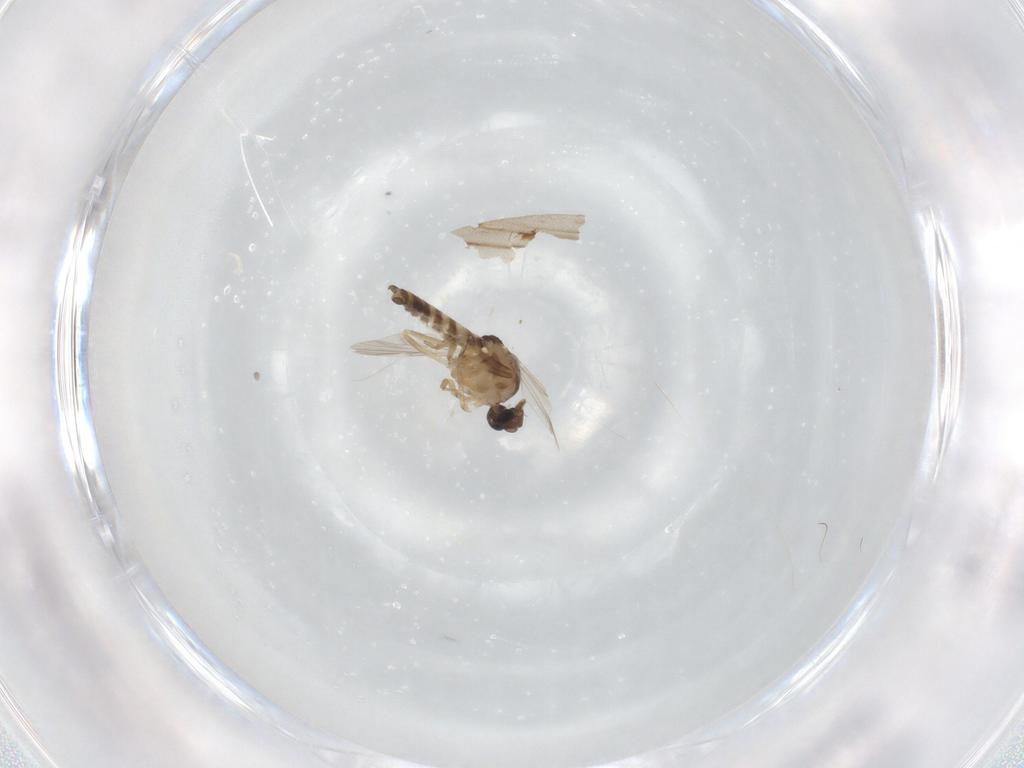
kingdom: Animalia
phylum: Arthropoda
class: Insecta
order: Diptera
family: Ceratopogonidae
